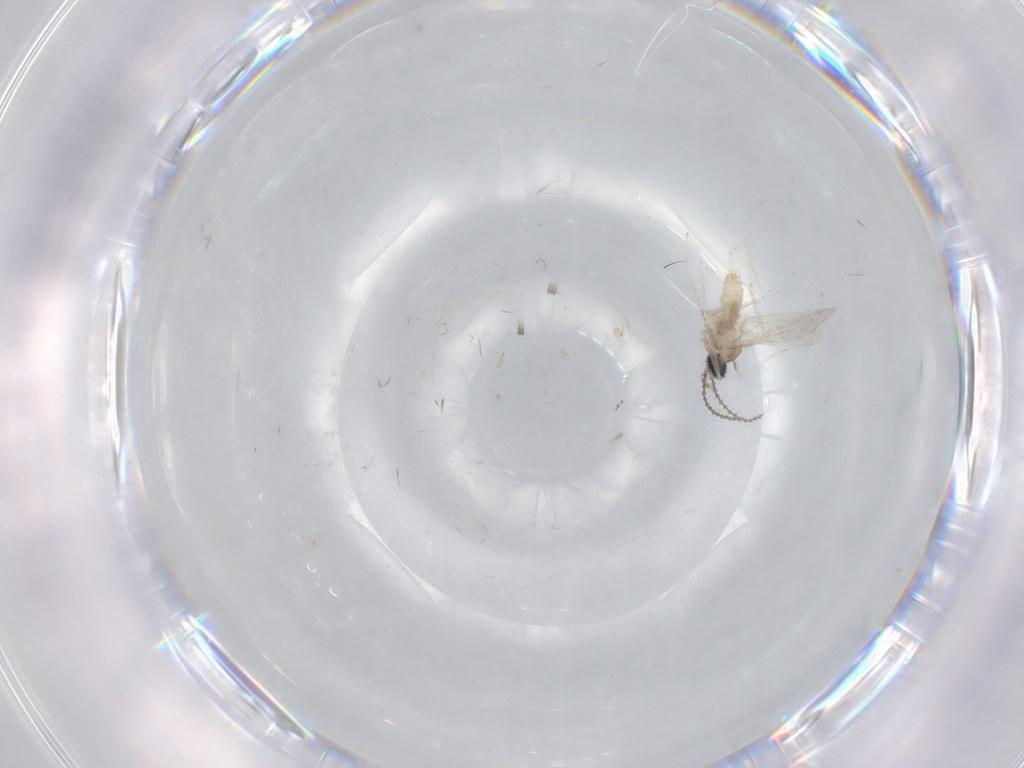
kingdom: Animalia
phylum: Arthropoda
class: Insecta
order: Diptera
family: Cecidomyiidae
